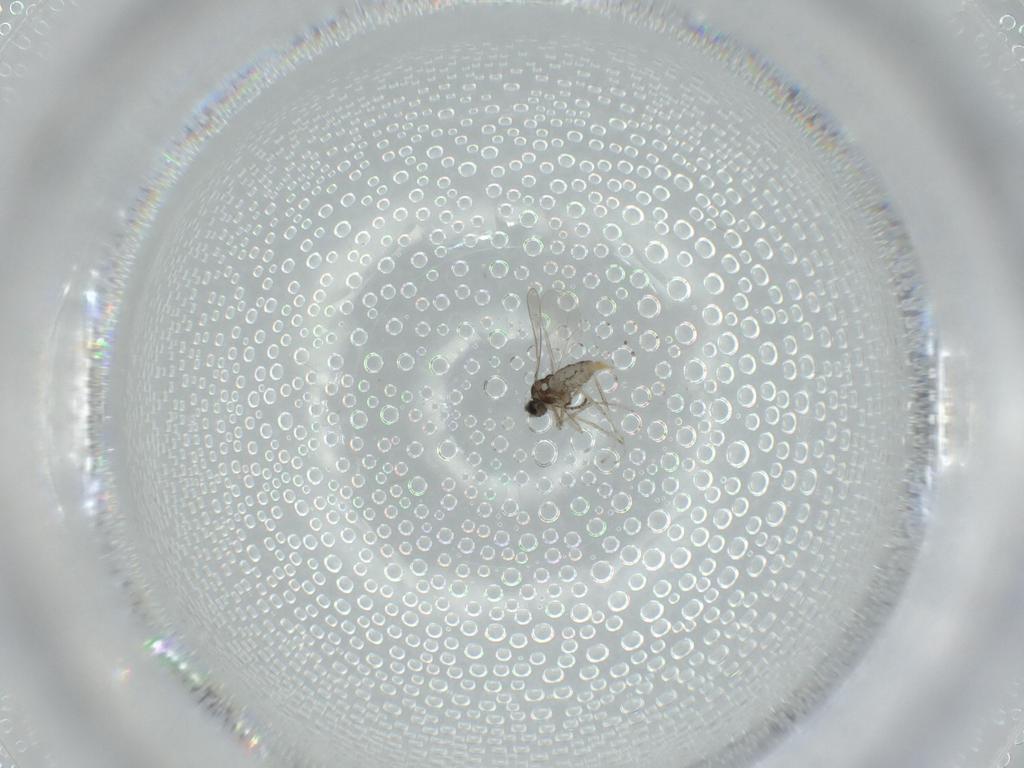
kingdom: Animalia
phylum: Arthropoda
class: Insecta
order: Diptera
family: Cecidomyiidae
